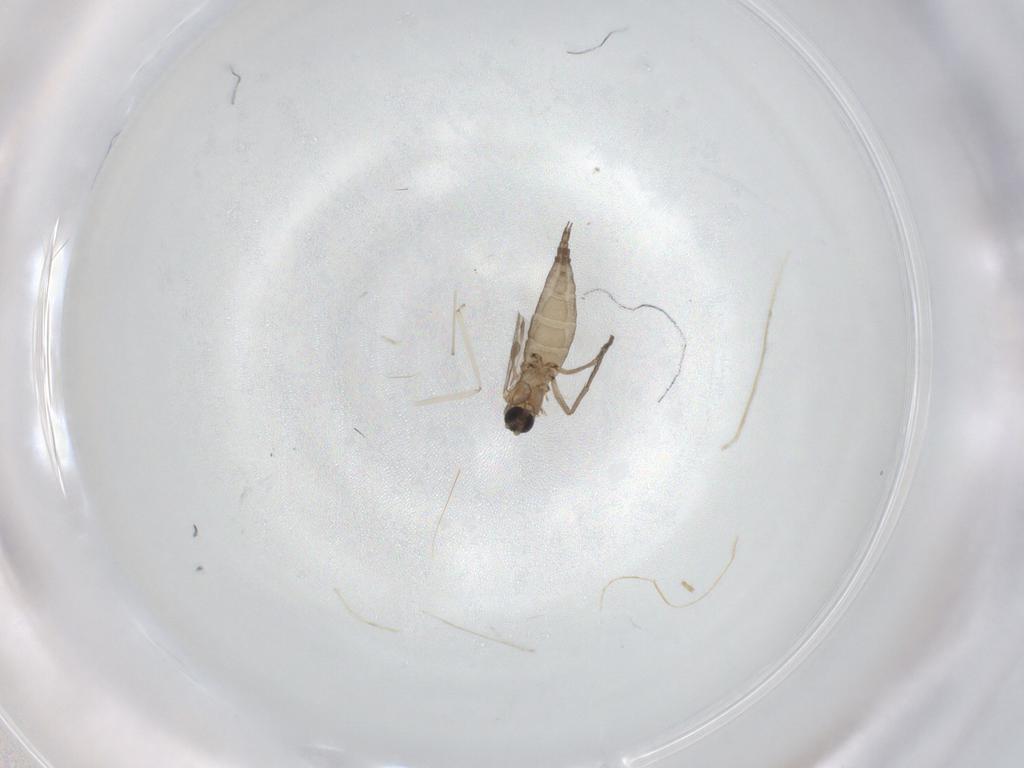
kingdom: Animalia
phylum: Arthropoda
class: Insecta
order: Diptera
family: Sciaridae
